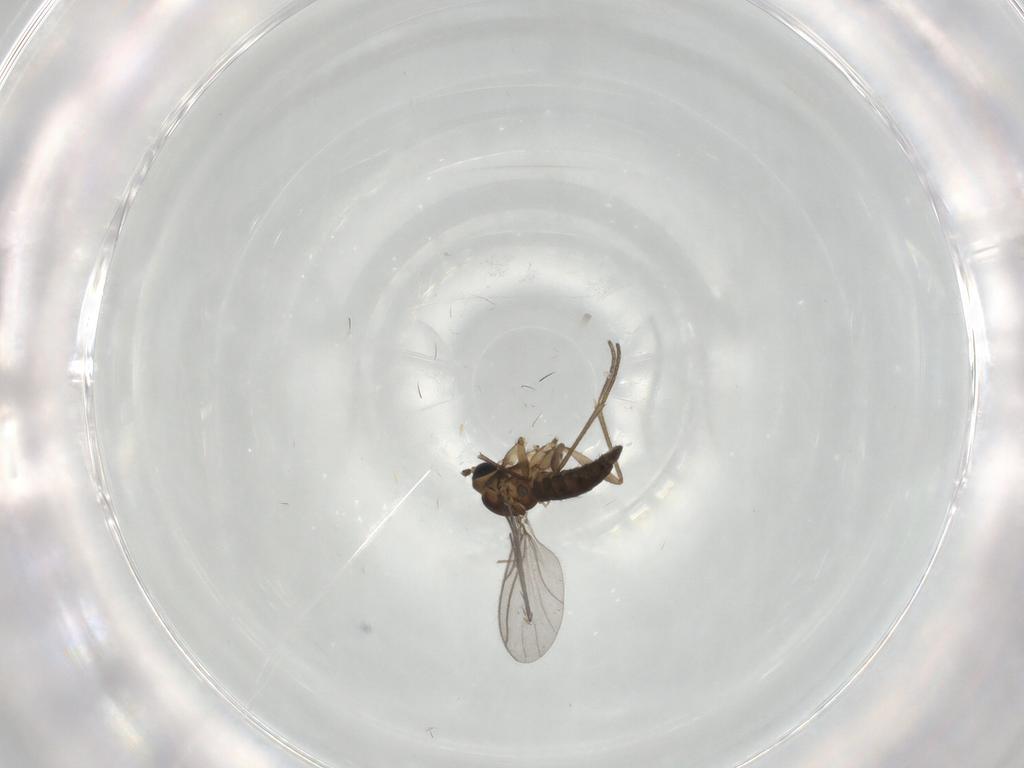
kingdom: Animalia
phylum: Arthropoda
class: Insecta
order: Diptera
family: Sciaridae
